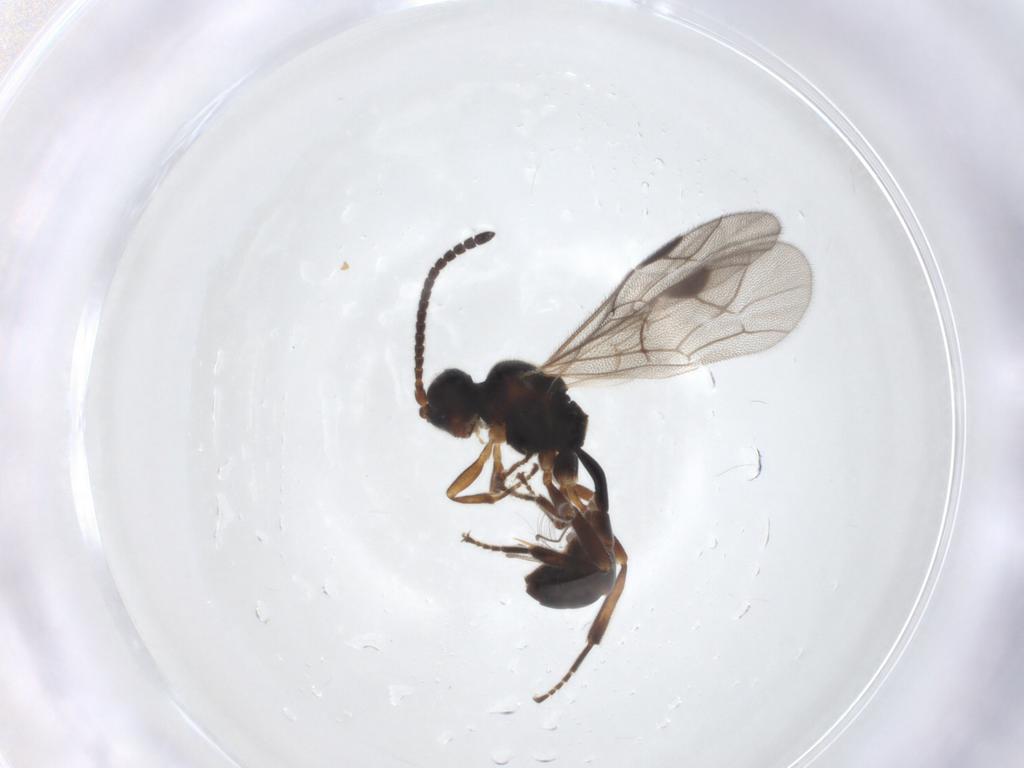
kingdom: Animalia
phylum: Arthropoda
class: Insecta
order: Hymenoptera
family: Ichneumonidae
